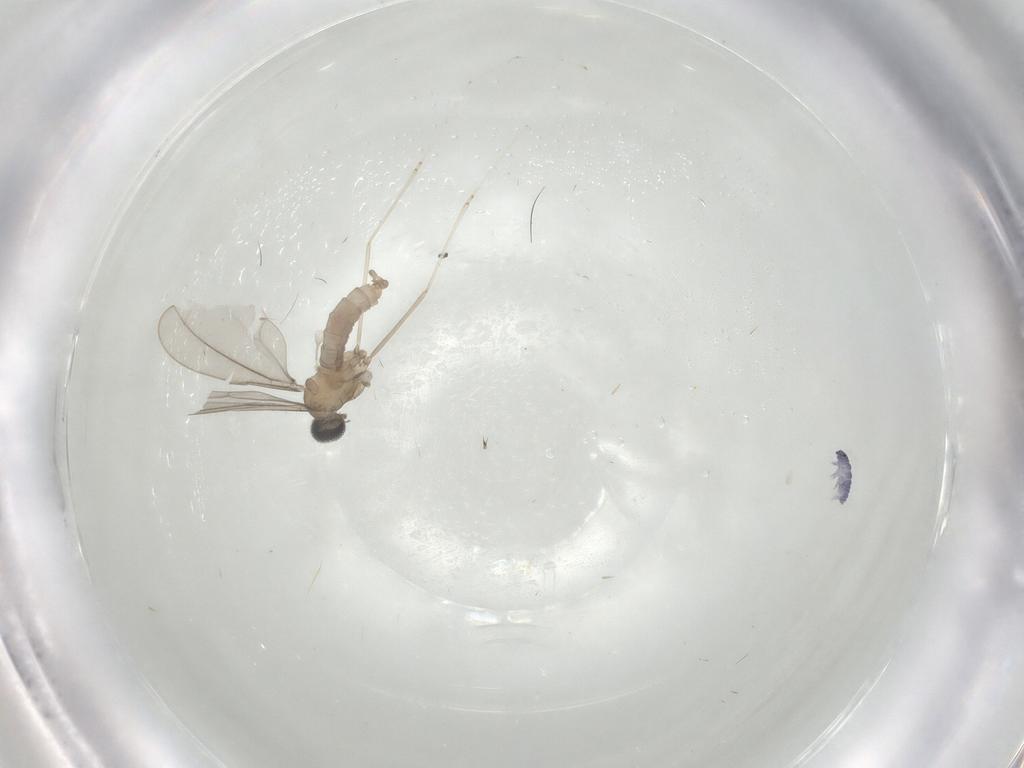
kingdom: Animalia
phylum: Arthropoda
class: Insecta
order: Diptera
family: Cecidomyiidae
